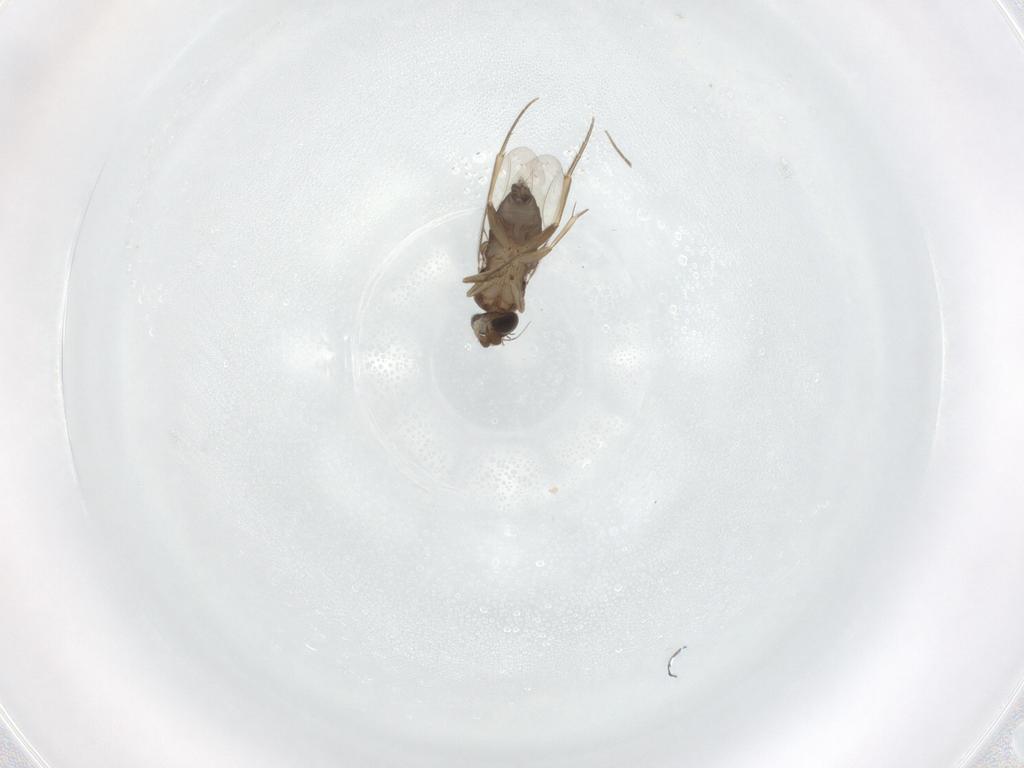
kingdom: Animalia
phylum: Arthropoda
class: Insecta
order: Diptera
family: Phoridae
